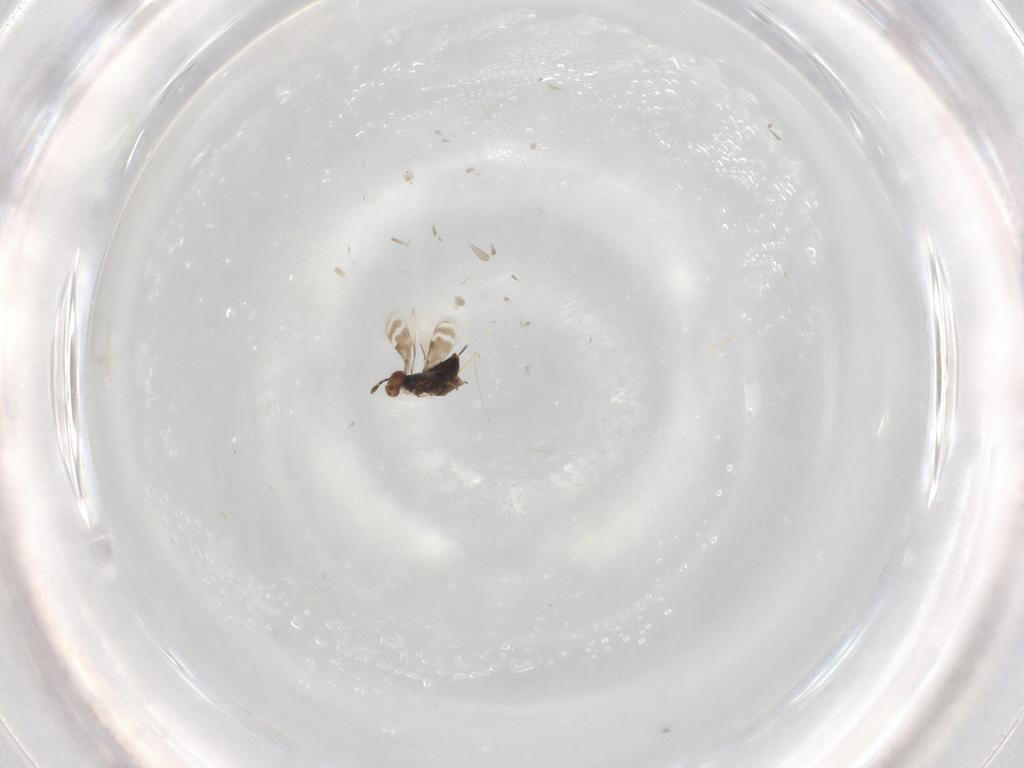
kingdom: Animalia
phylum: Arthropoda
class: Insecta
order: Hymenoptera
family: Azotidae
